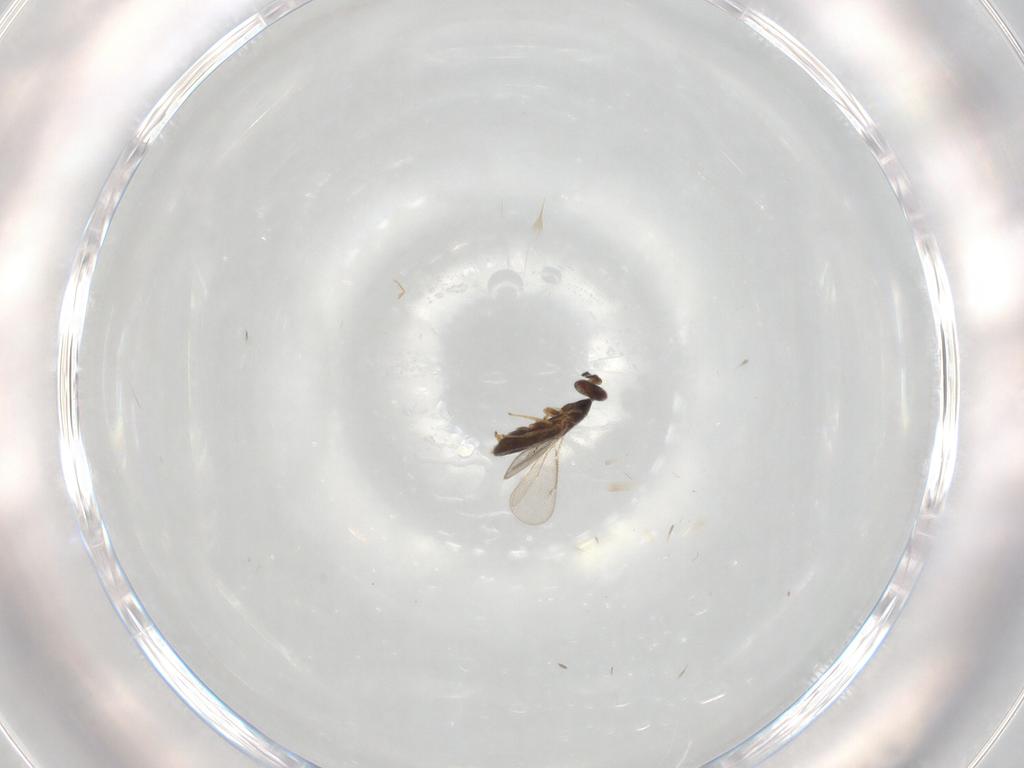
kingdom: Animalia
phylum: Arthropoda
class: Insecta
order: Hymenoptera
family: Eulophidae
